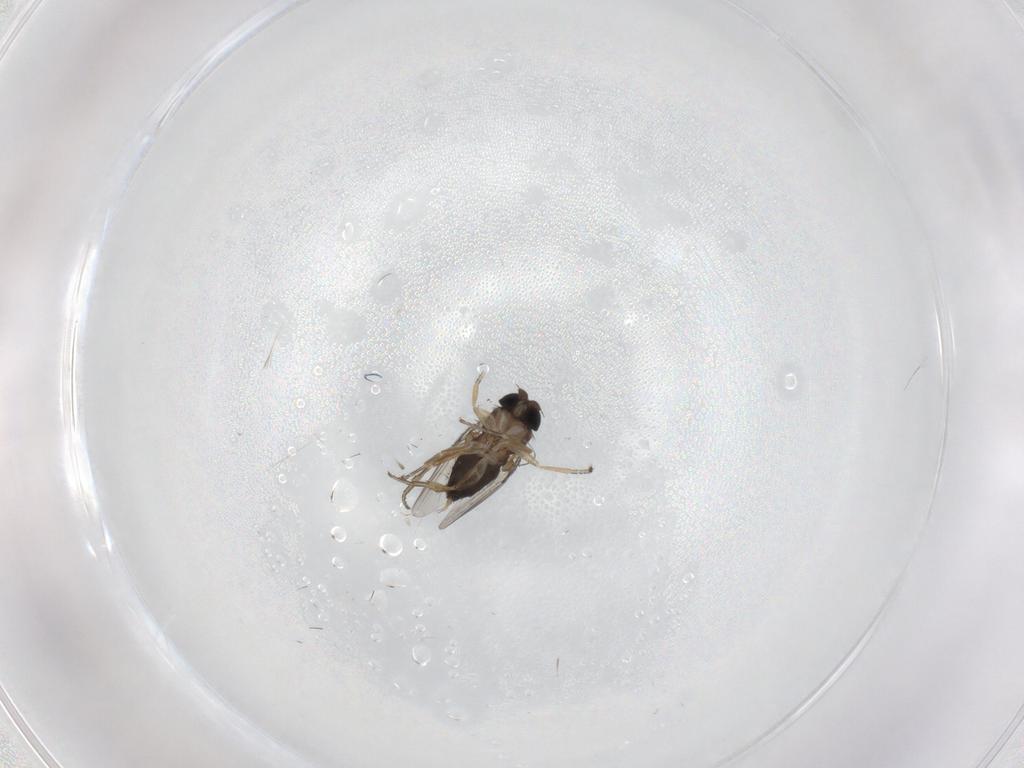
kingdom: Animalia
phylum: Arthropoda
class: Insecta
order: Diptera
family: Phoridae
